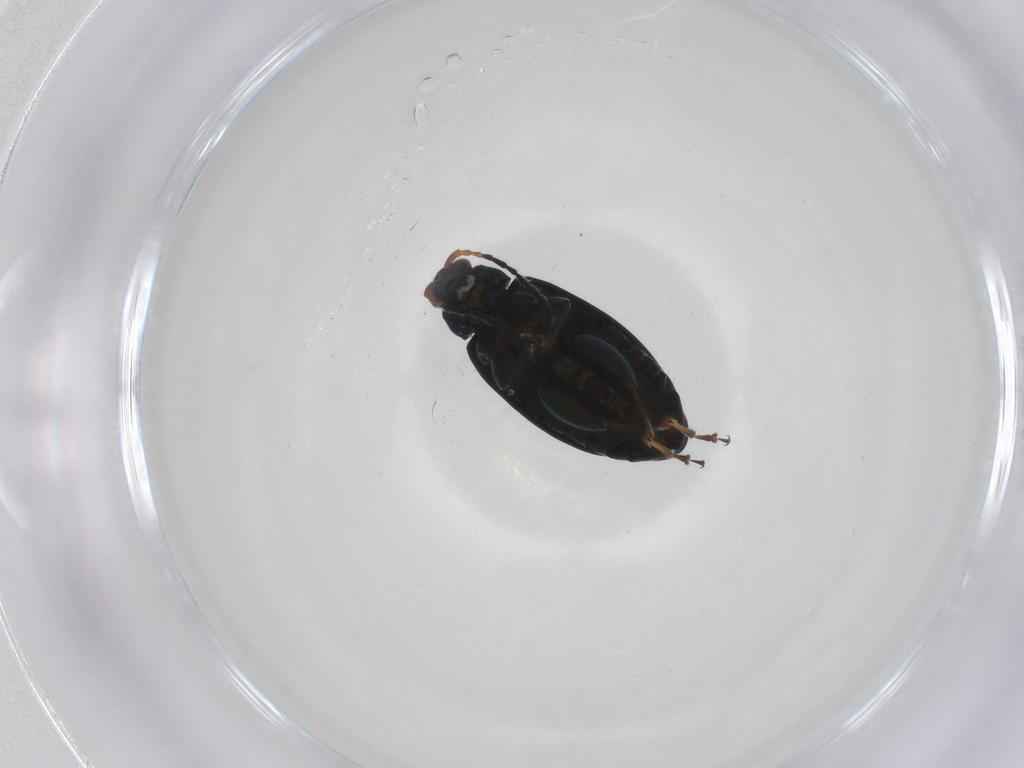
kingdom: Animalia
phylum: Arthropoda
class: Insecta
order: Coleoptera
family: Chrysomelidae
